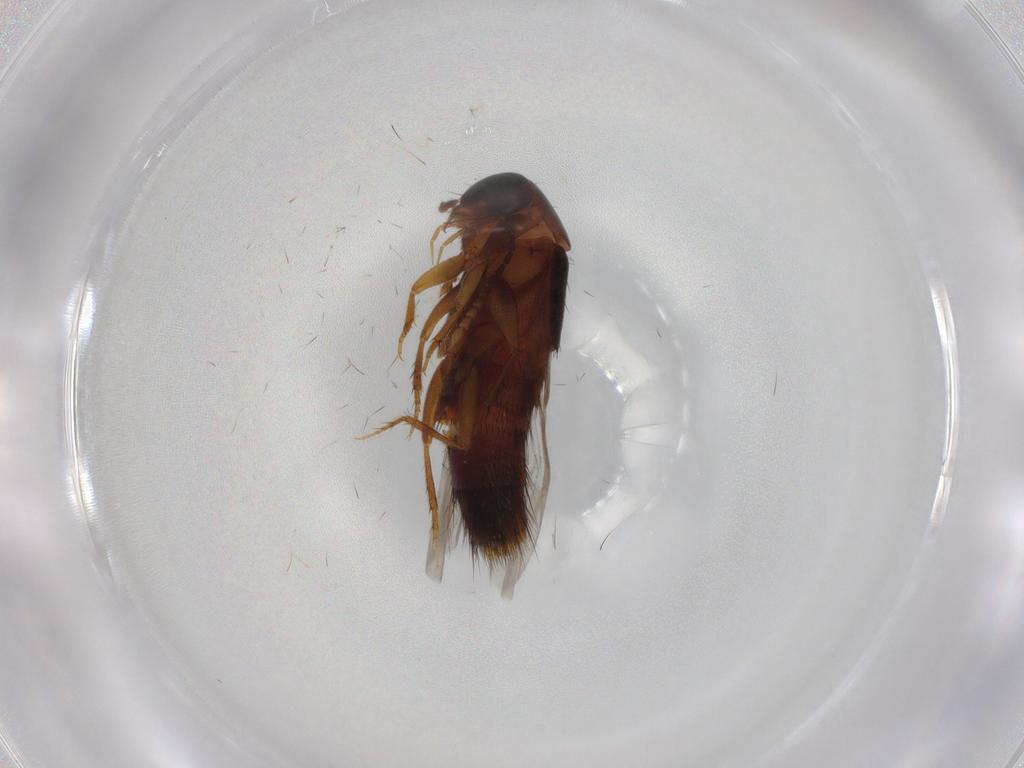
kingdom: Animalia
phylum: Arthropoda
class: Insecta
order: Coleoptera
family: Staphylinidae
